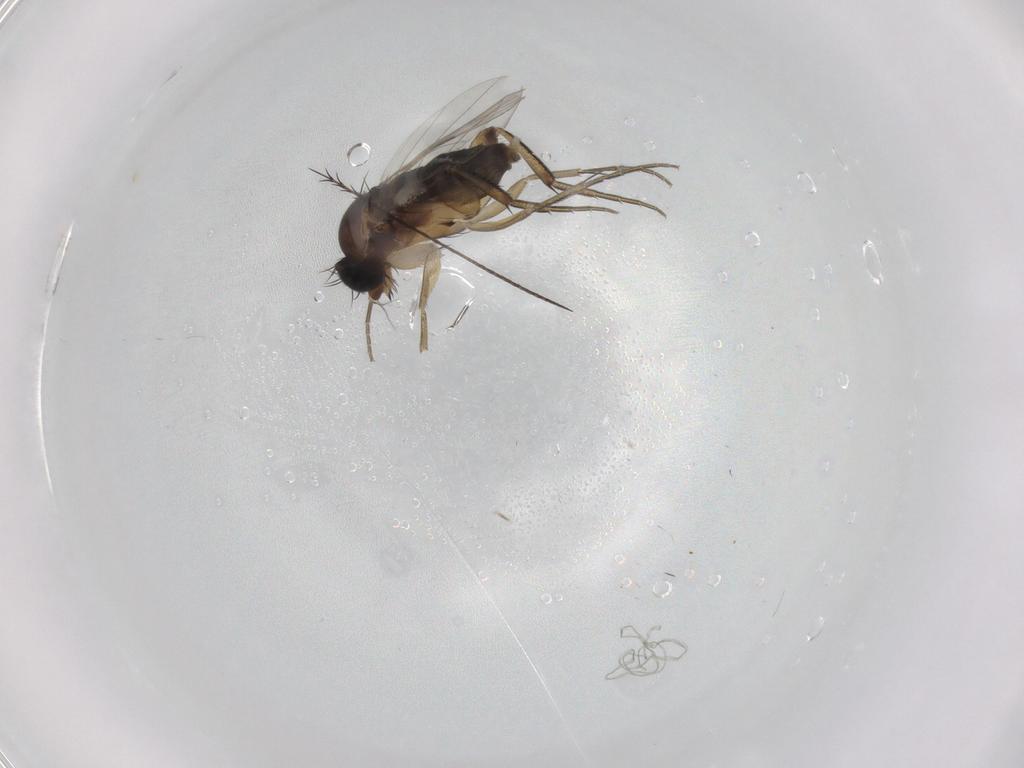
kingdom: Animalia
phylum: Arthropoda
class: Insecta
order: Diptera
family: Phoridae
